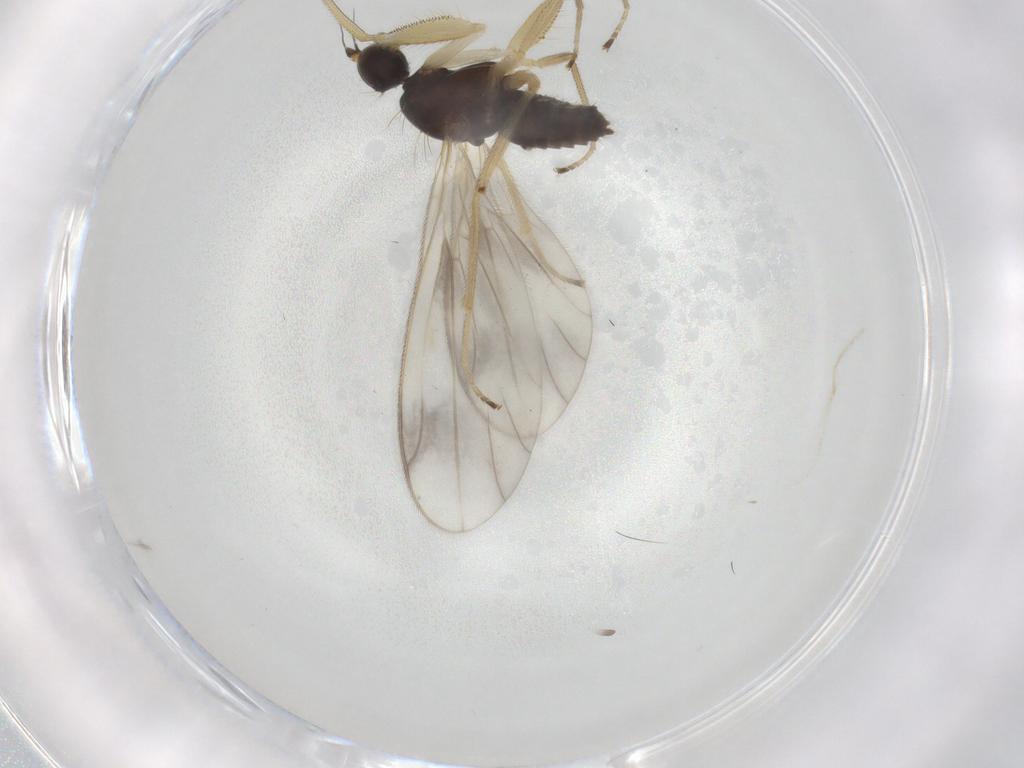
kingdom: Animalia
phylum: Arthropoda
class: Insecta
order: Diptera
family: Empididae
